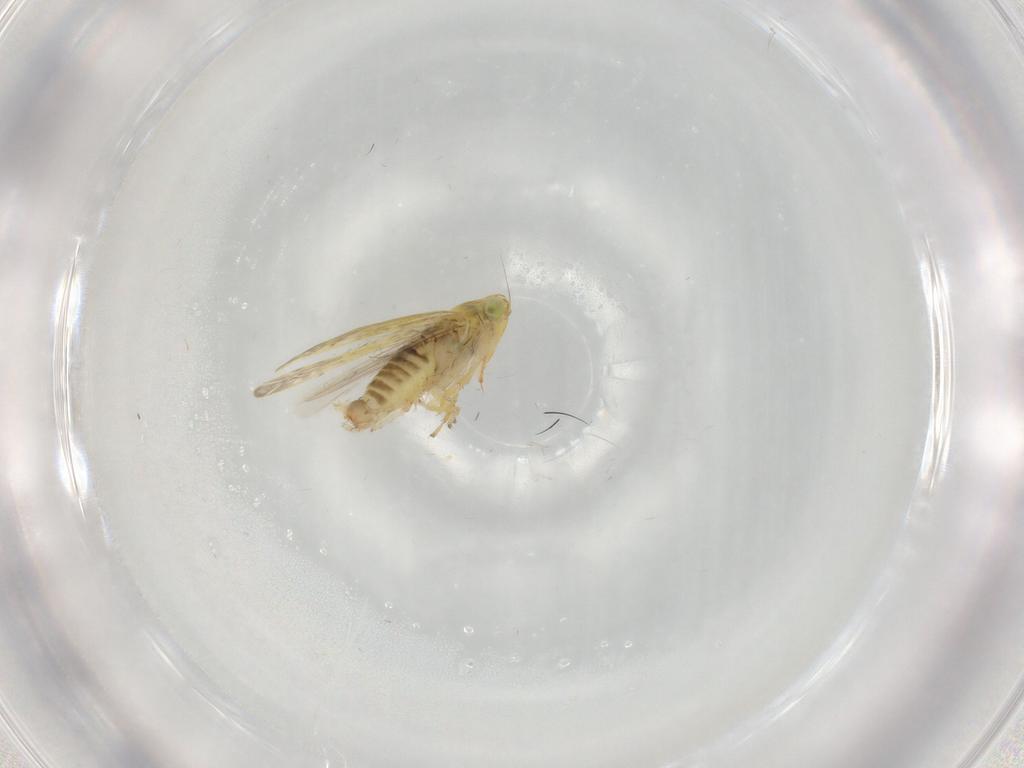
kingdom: Animalia
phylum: Arthropoda
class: Insecta
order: Hemiptera
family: Cicadellidae
